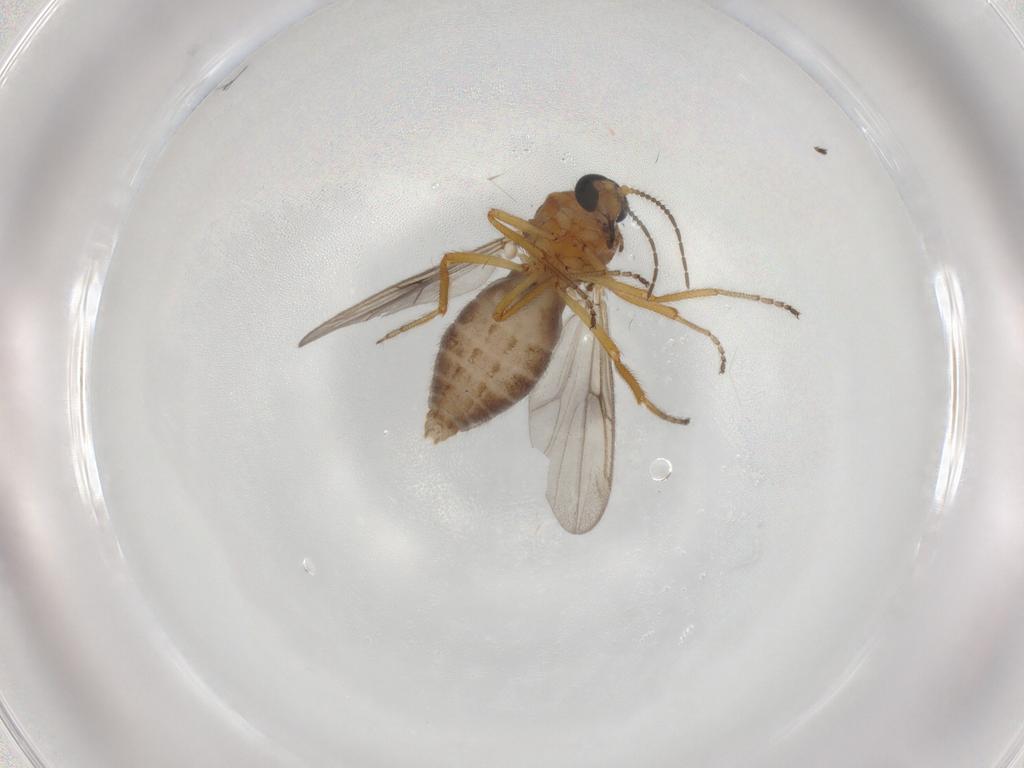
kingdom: Animalia
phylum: Arthropoda
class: Insecta
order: Diptera
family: Ceratopogonidae
